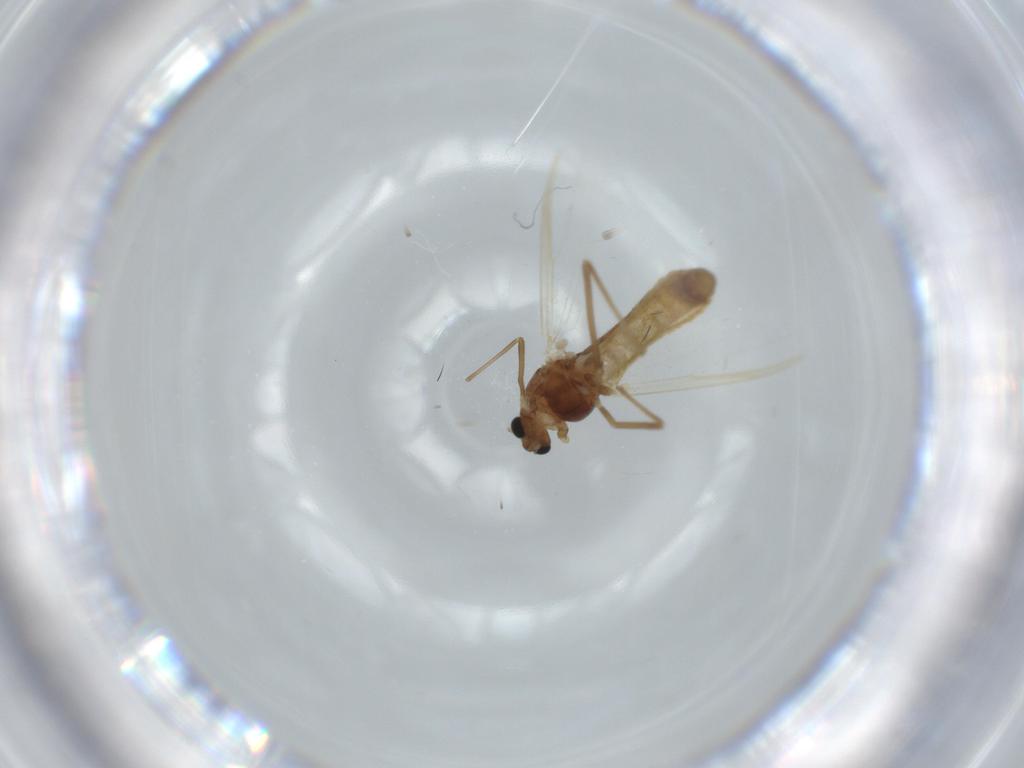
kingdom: Animalia
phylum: Arthropoda
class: Insecta
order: Diptera
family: Chironomidae
